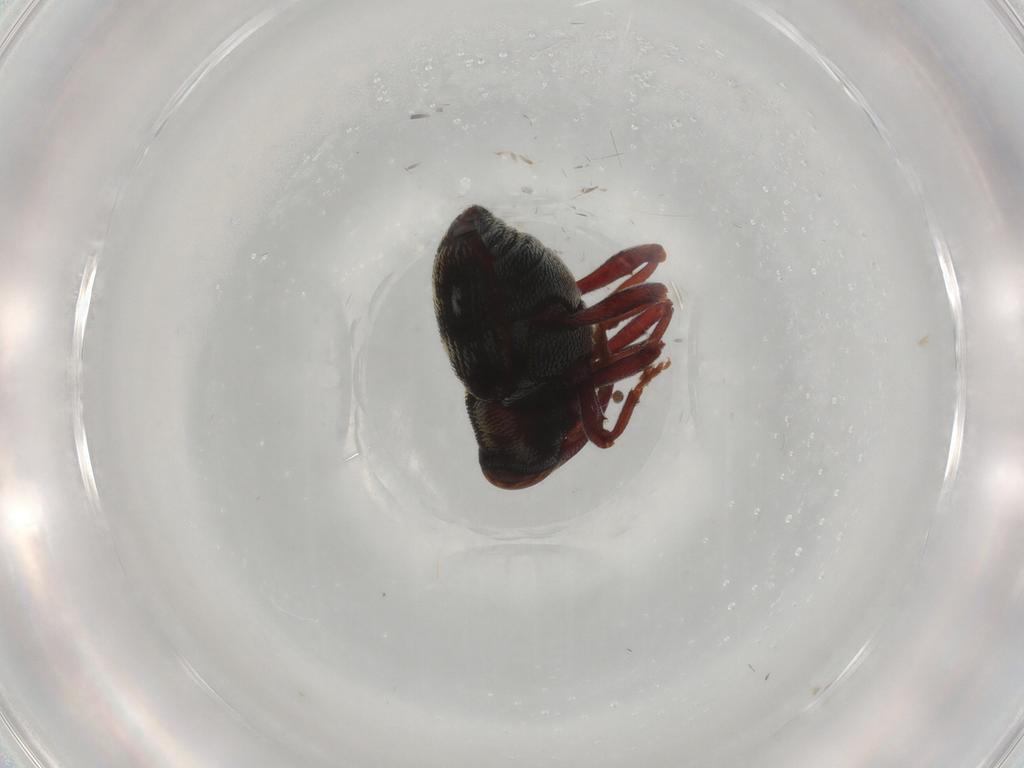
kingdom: Animalia
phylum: Arthropoda
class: Insecta
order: Coleoptera
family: Curculionidae
